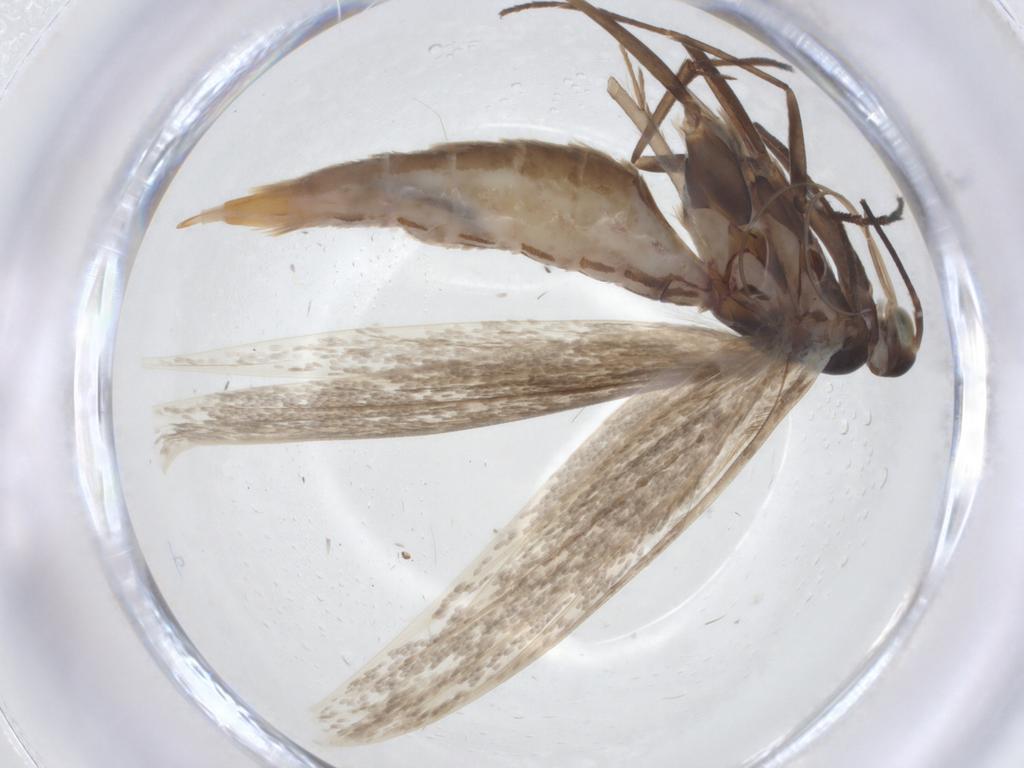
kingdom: Animalia
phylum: Arthropoda
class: Insecta
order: Lepidoptera
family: Coleophoridae
